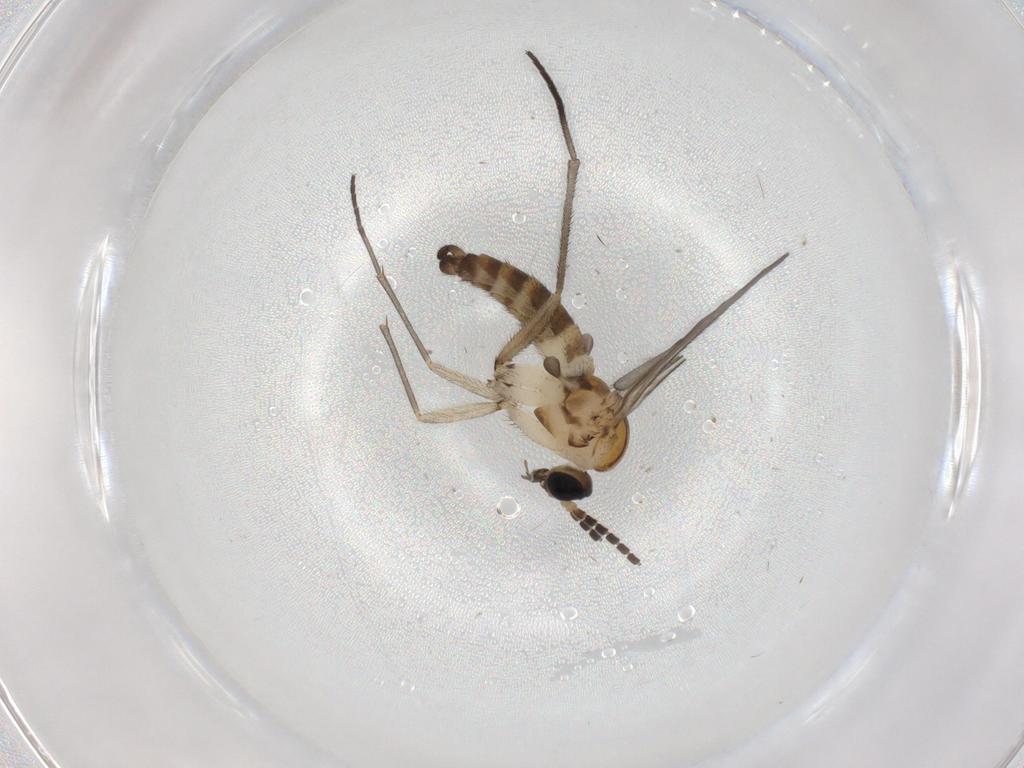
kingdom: Animalia
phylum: Arthropoda
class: Insecta
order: Diptera
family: Sciaridae
